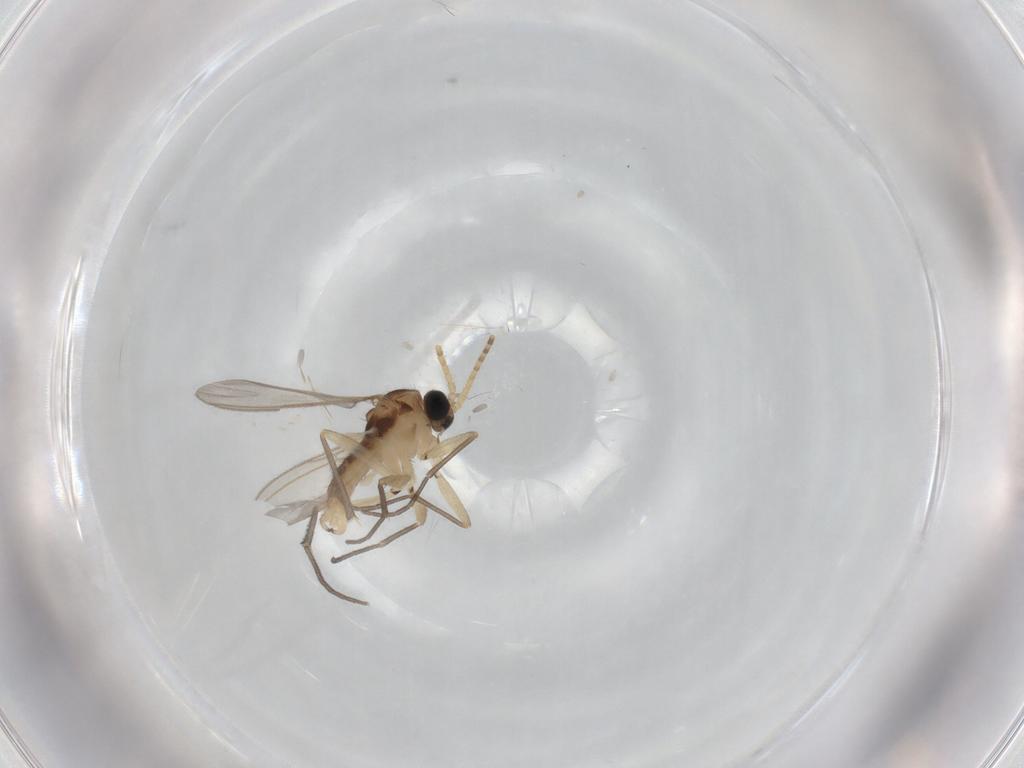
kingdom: Animalia
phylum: Arthropoda
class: Insecta
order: Diptera
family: Sciaridae
